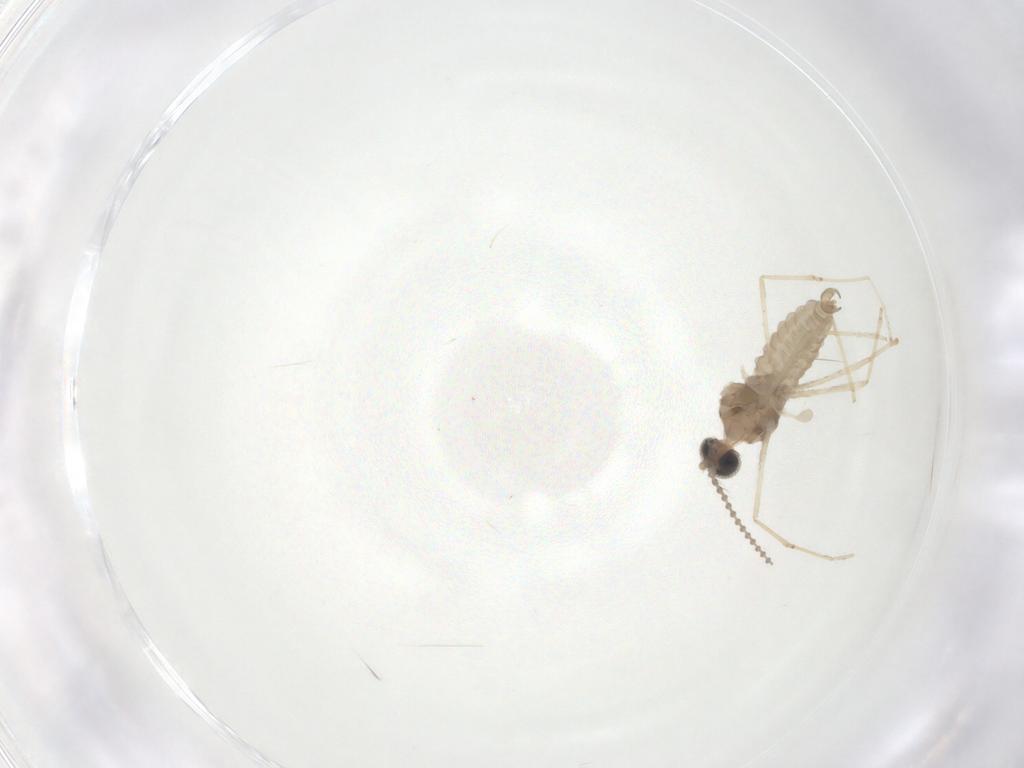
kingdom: Animalia
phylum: Arthropoda
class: Insecta
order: Diptera
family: Cecidomyiidae
